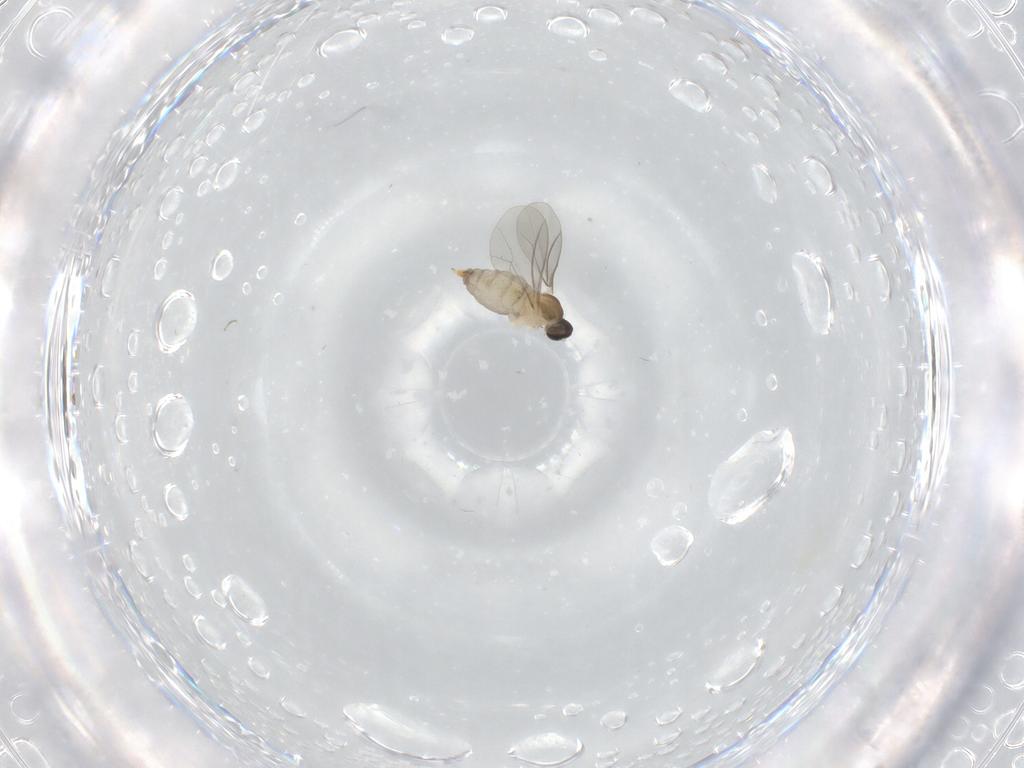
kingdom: Animalia
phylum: Arthropoda
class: Insecta
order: Diptera
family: Cecidomyiidae
